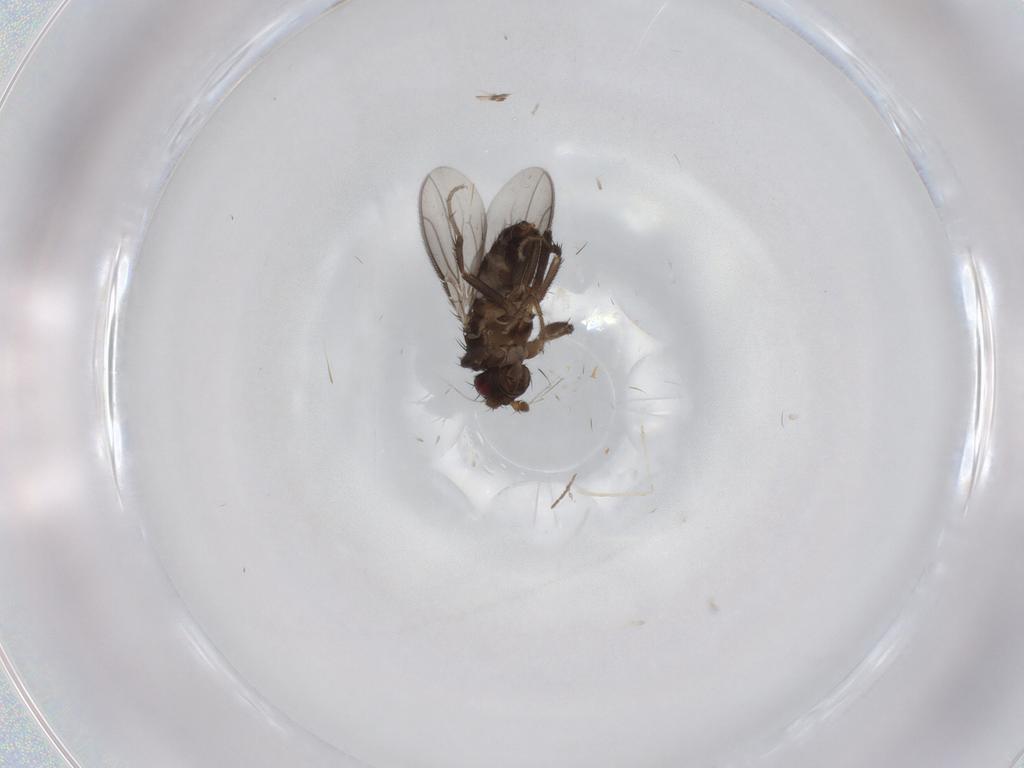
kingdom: Animalia
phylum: Arthropoda
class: Insecta
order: Diptera
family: Sphaeroceridae
